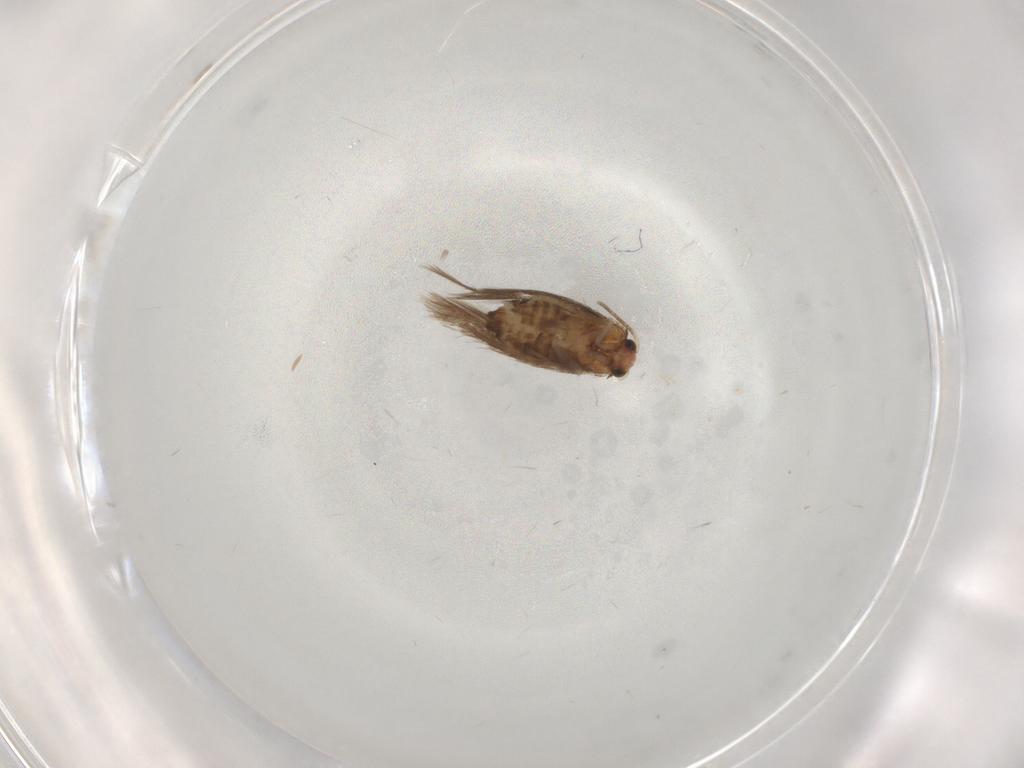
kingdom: Animalia
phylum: Arthropoda
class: Insecta
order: Lepidoptera
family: Nepticulidae
